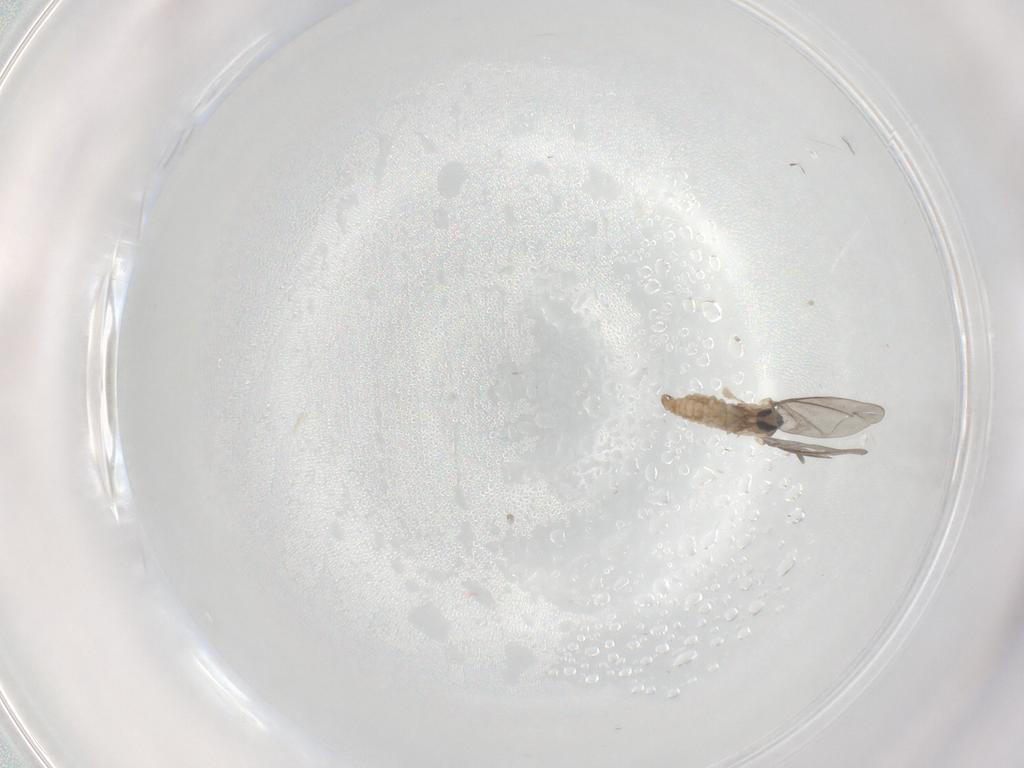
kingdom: Animalia
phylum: Arthropoda
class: Insecta
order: Diptera
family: Cecidomyiidae
